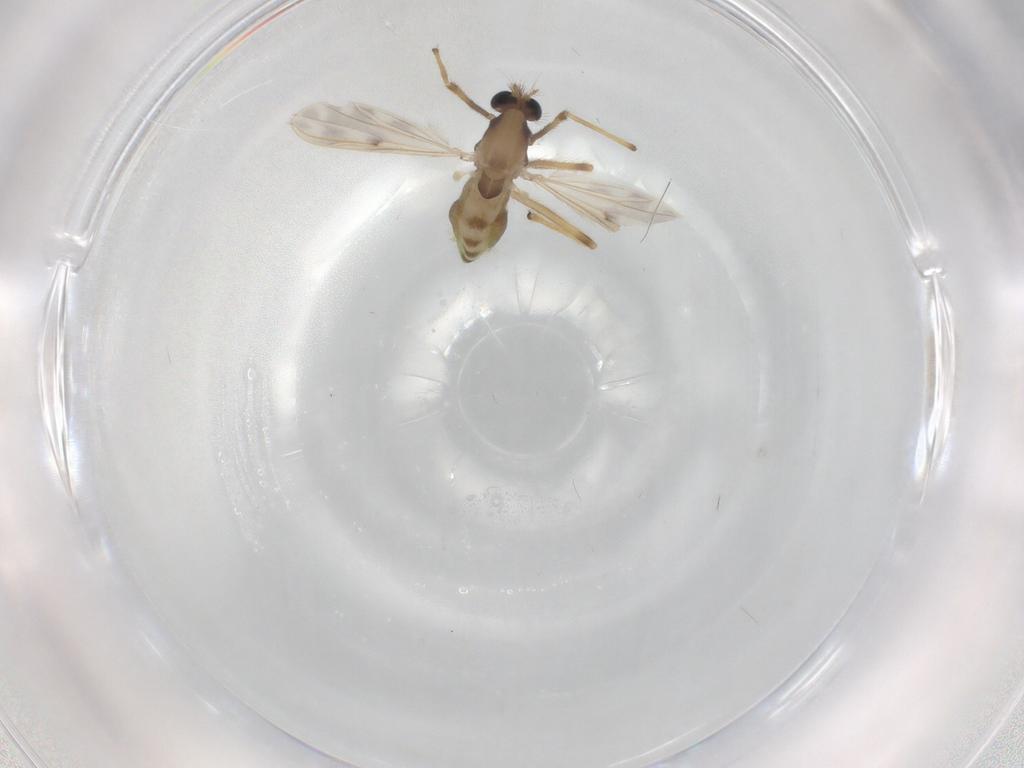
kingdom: Animalia
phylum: Arthropoda
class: Insecta
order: Diptera
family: Chironomidae
